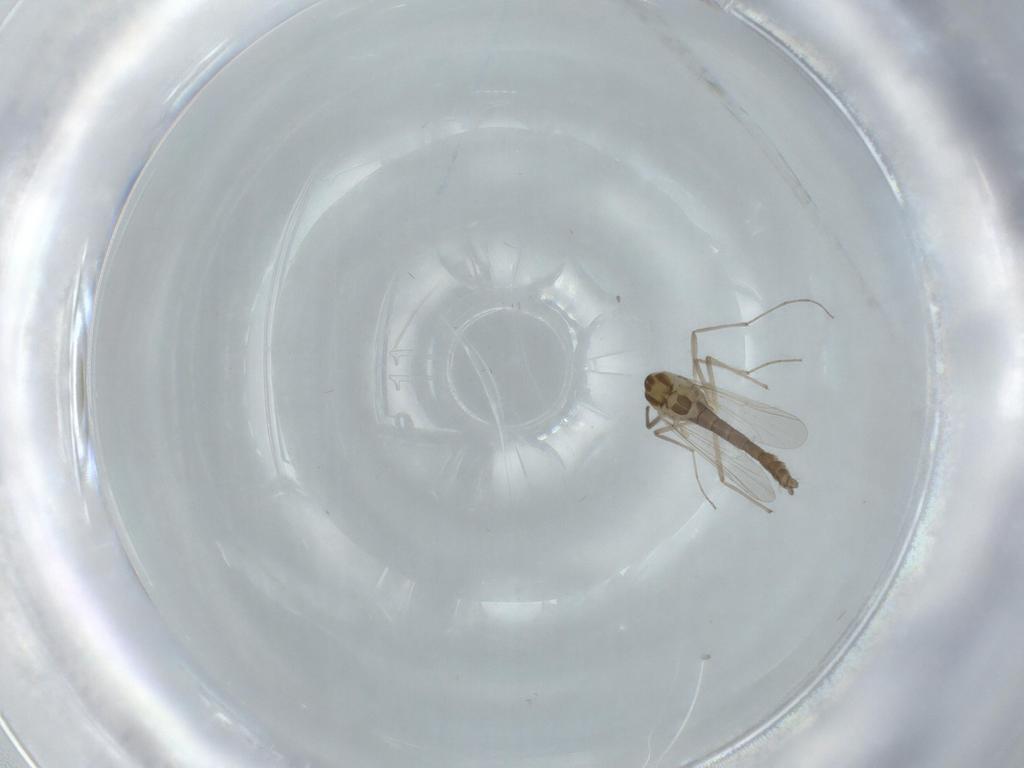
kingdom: Animalia
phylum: Arthropoda
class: Insecta
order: Diptera
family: Chironomidae
